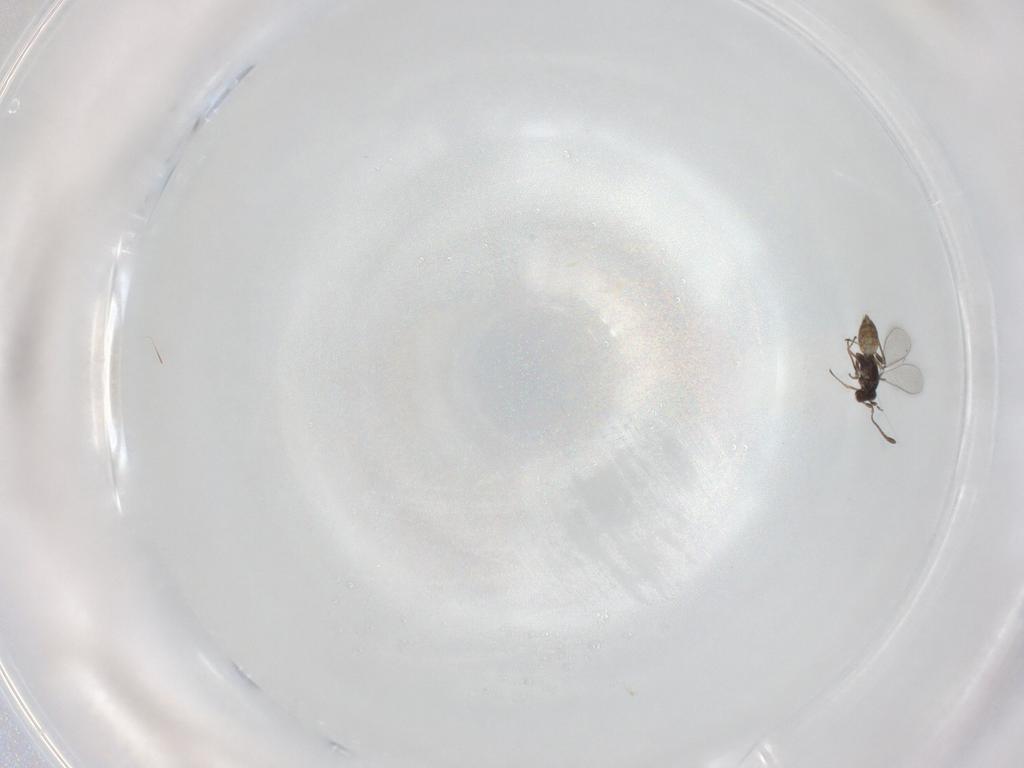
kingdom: Animalia
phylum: Arthropoda
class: Insecta
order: Hymenoptera
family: Mymaridae
